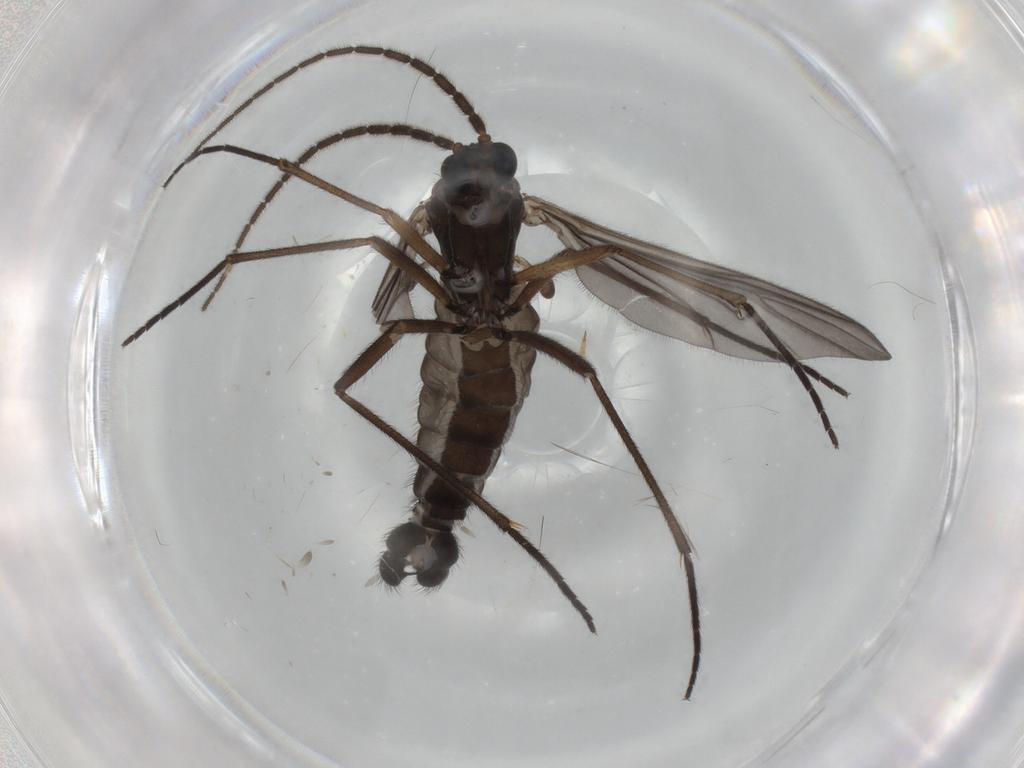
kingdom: Animalia
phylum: Arthropoda
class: Insecta
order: Diptera
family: Sciaridae
